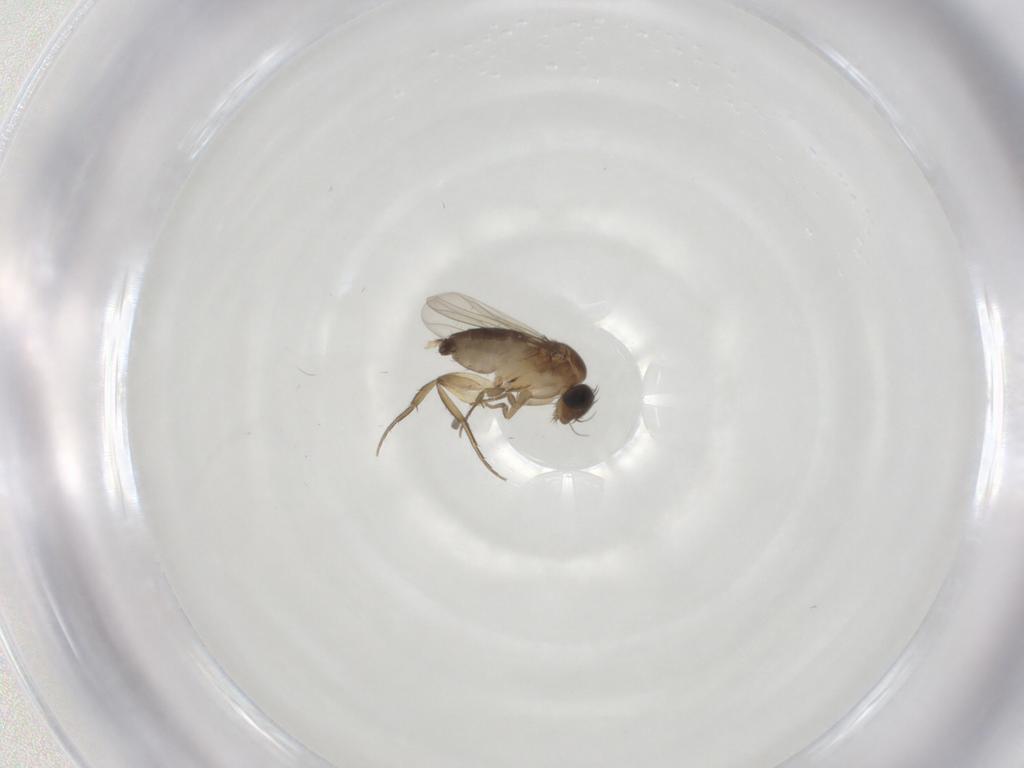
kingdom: Animalia
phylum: Arthropoda
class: Insecta
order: Diptera
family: Phoridae
